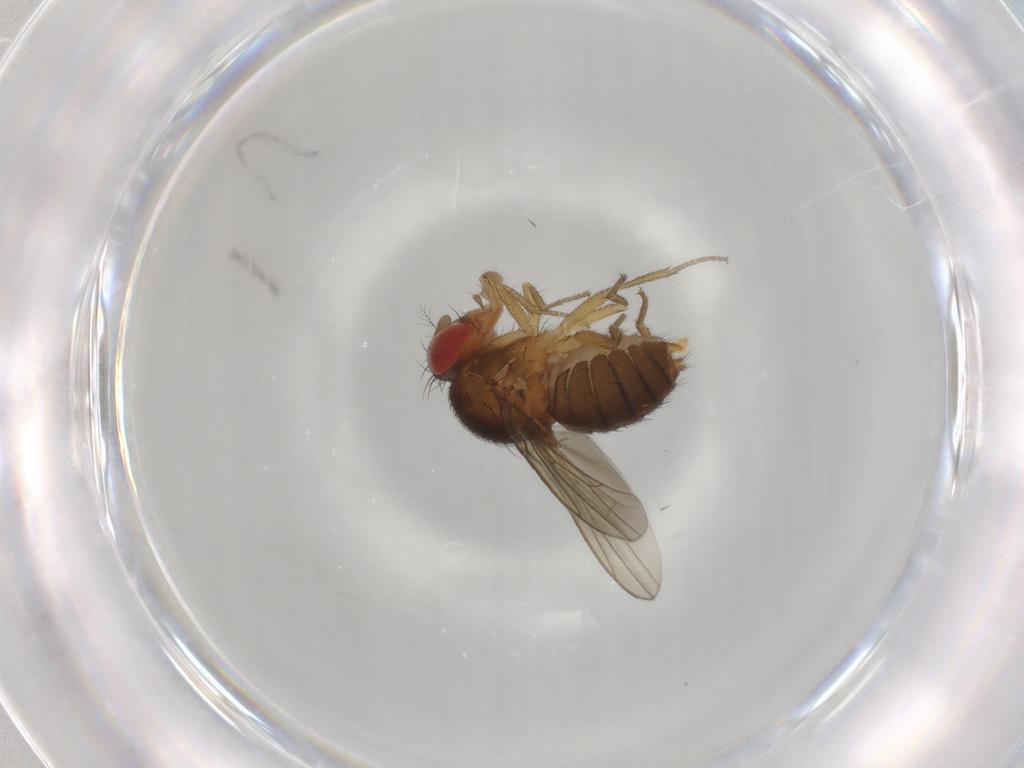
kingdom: Animalia
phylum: Arthropoda
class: Insecta
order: Diptera
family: Drosophilidae
